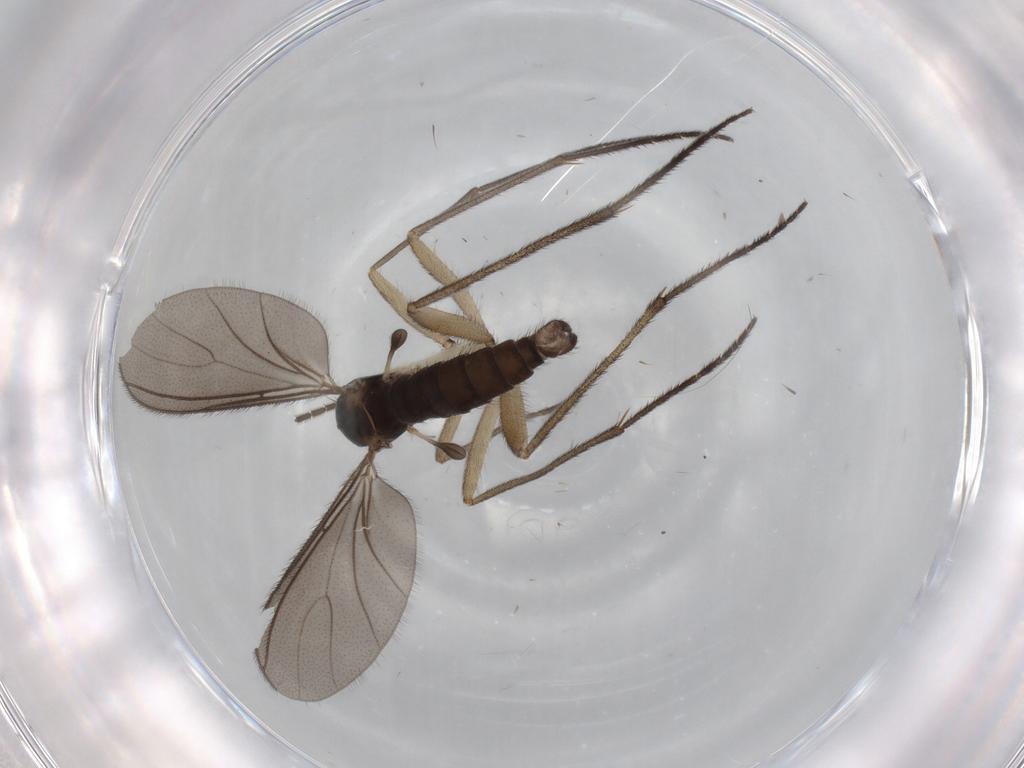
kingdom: Animalia
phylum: Arthropoda
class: Insecta
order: Diptera
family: Sciaridae
